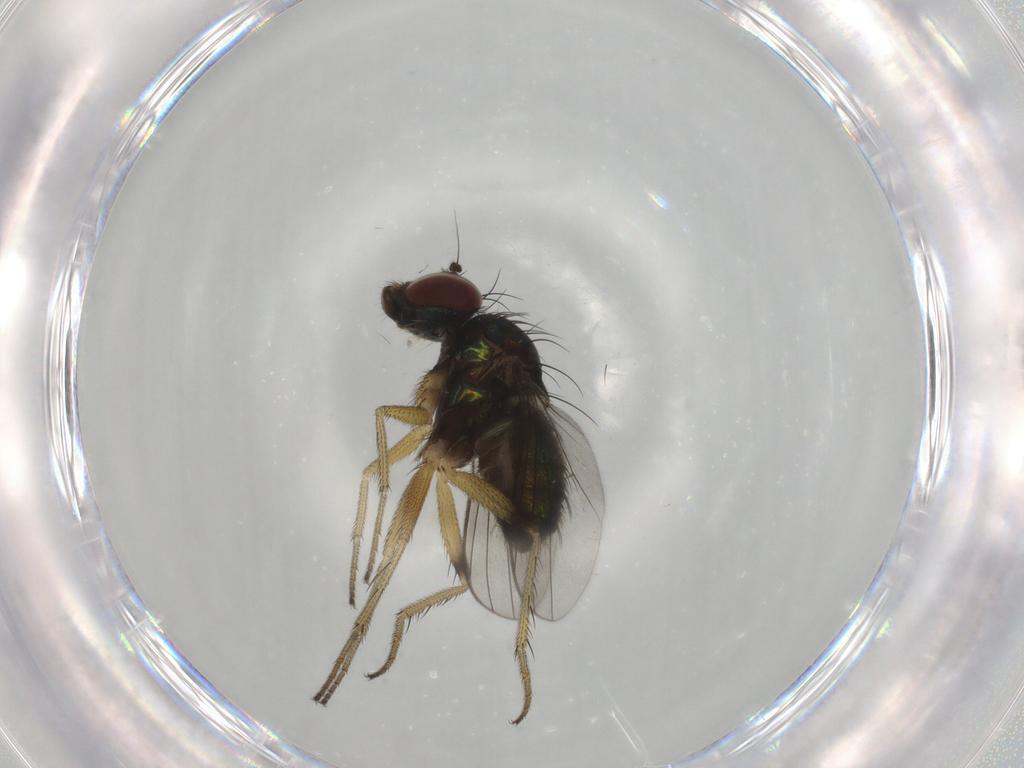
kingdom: Animalia
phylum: Arthropoda
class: Insecta
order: Diptera
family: Dolichopodidae
